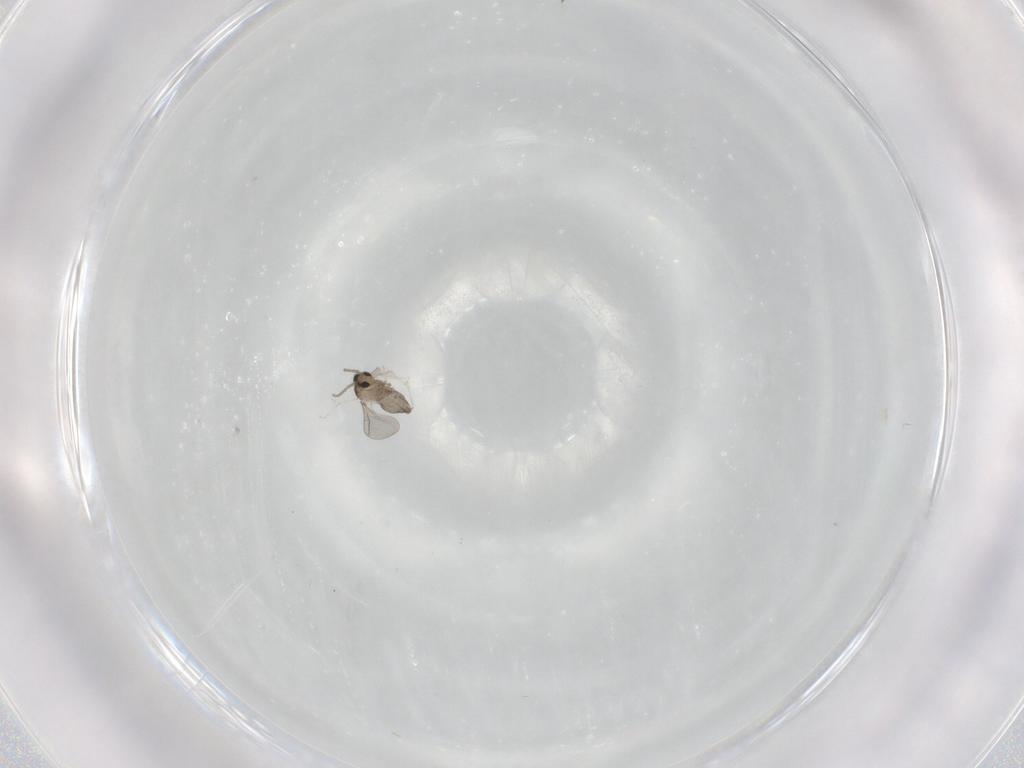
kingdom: Animalia
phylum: Arthropoda
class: Insecta
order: Diptera
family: Cecidomyiidae
